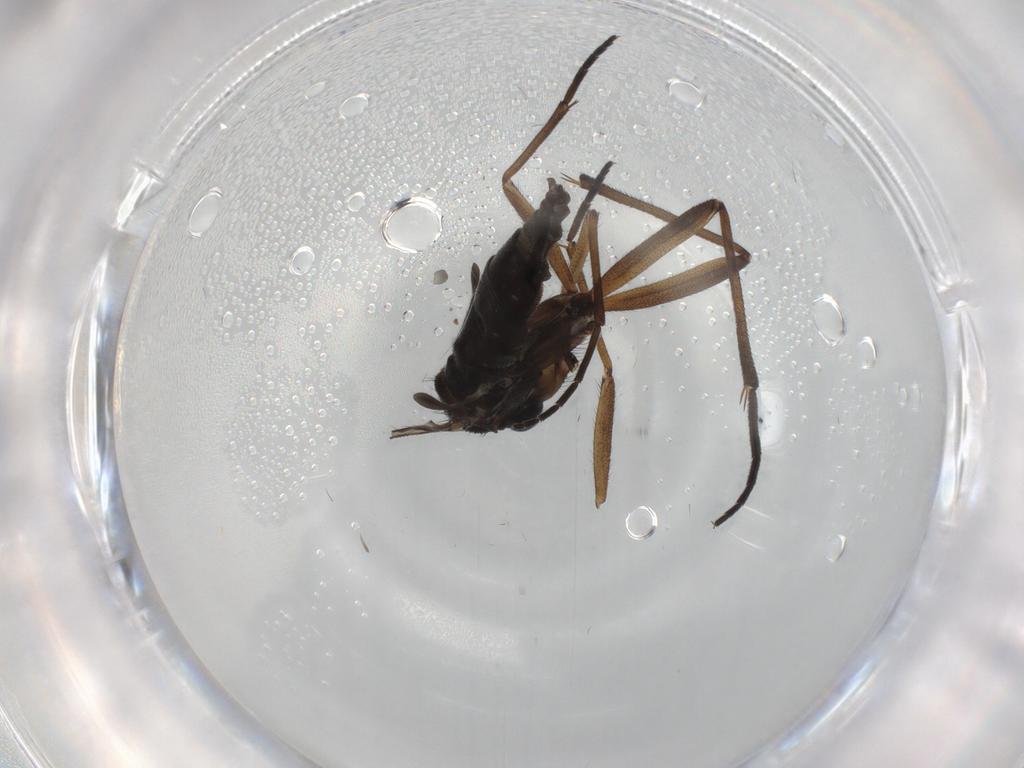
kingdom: Animalia
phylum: Arthropoda
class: Insecta
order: Diptera
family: Sciaridae
